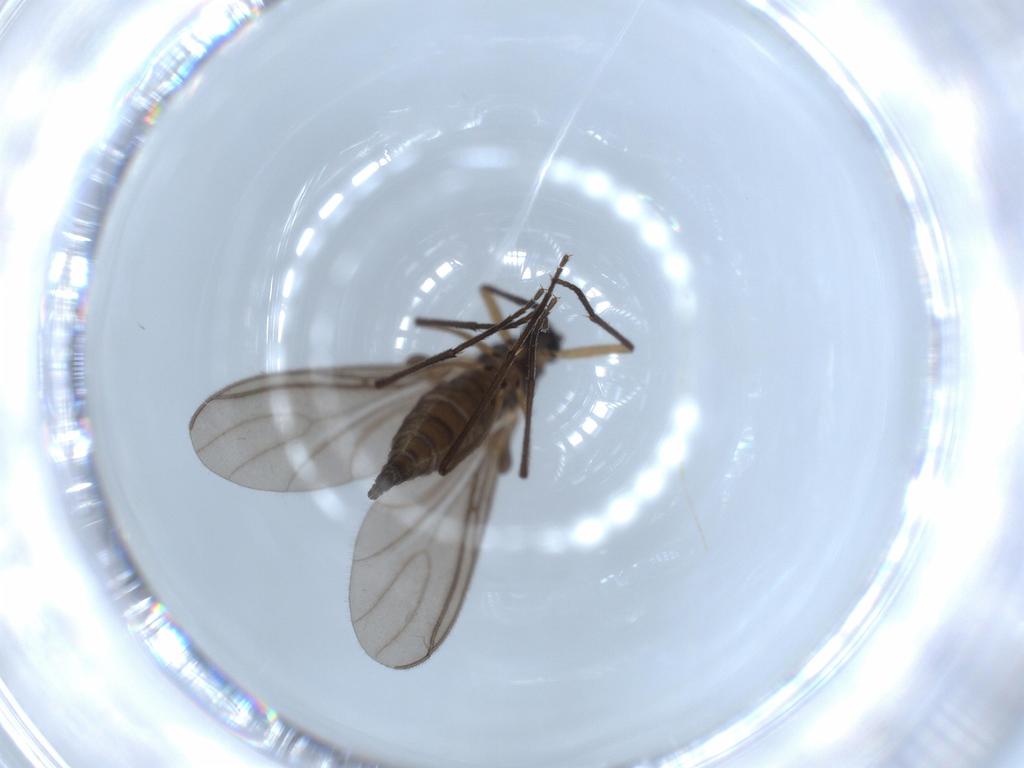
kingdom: Animalia
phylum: Arthropoda
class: Insecta
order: Diptera
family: Sciaridae
